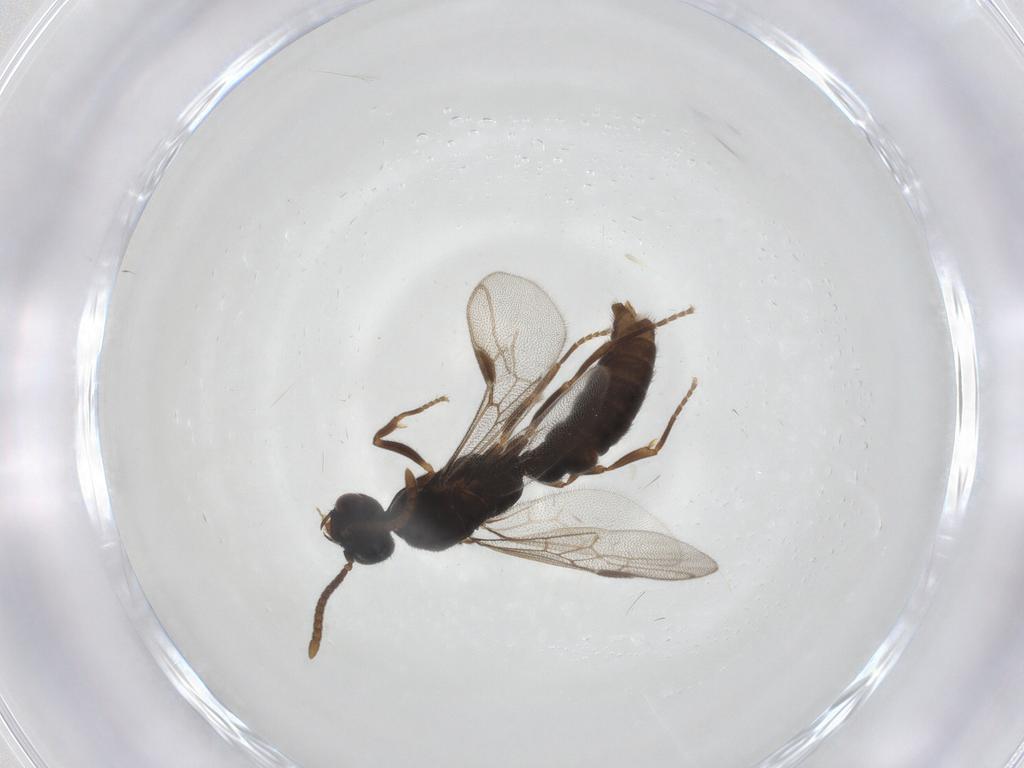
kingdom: Animalia
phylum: Arthropoda
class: Insecta
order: Hymenoptera
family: Formicidae
